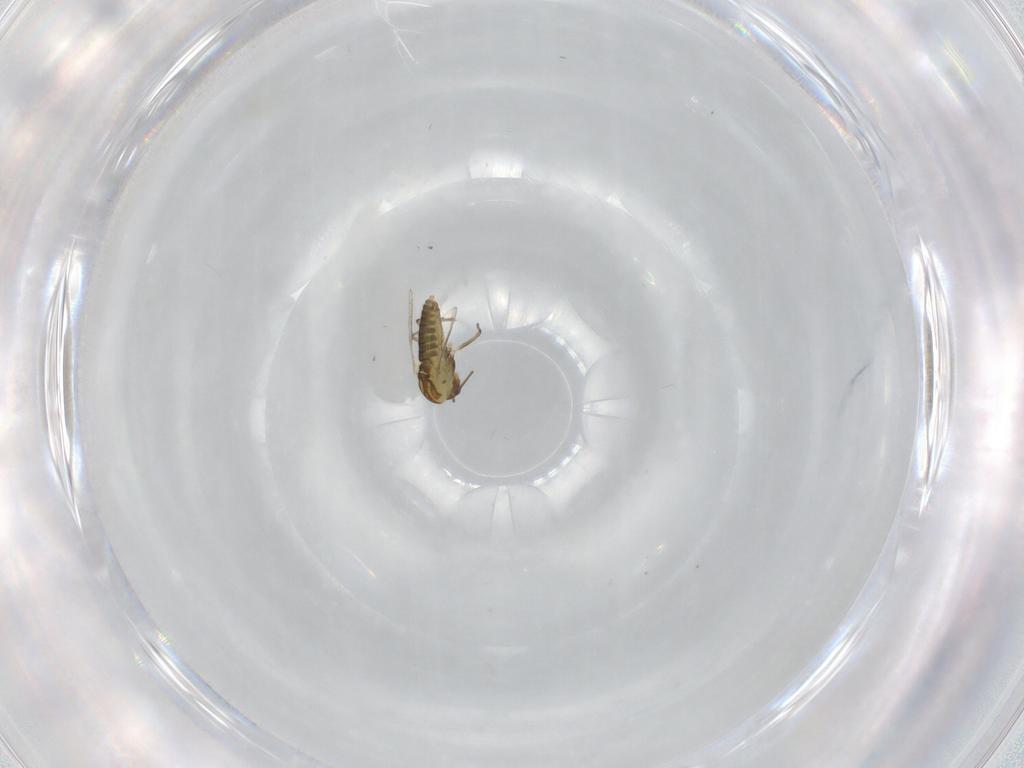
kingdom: Animalia
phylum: Arthropoda
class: Insecta
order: Diptera
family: Chironomidae
